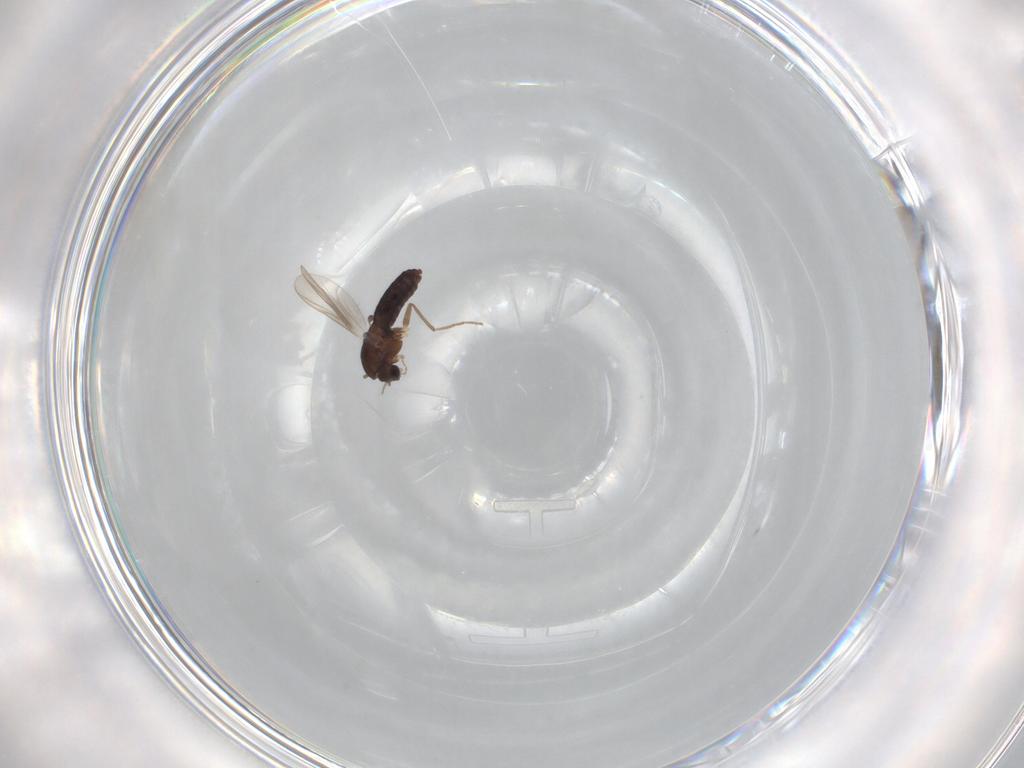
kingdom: Animalia
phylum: Arthropoda
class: Insecta
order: Diptera
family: Chironomidae
